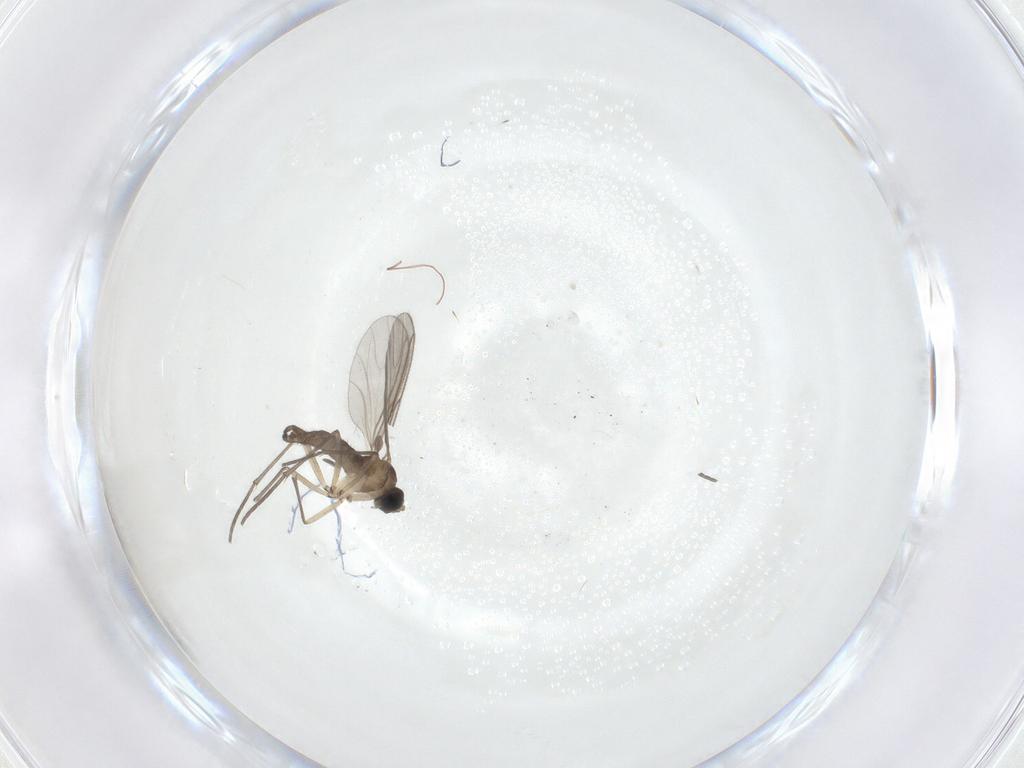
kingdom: Animalia
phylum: Arthropoda
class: Insecta
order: Diptera
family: Sciaridae
